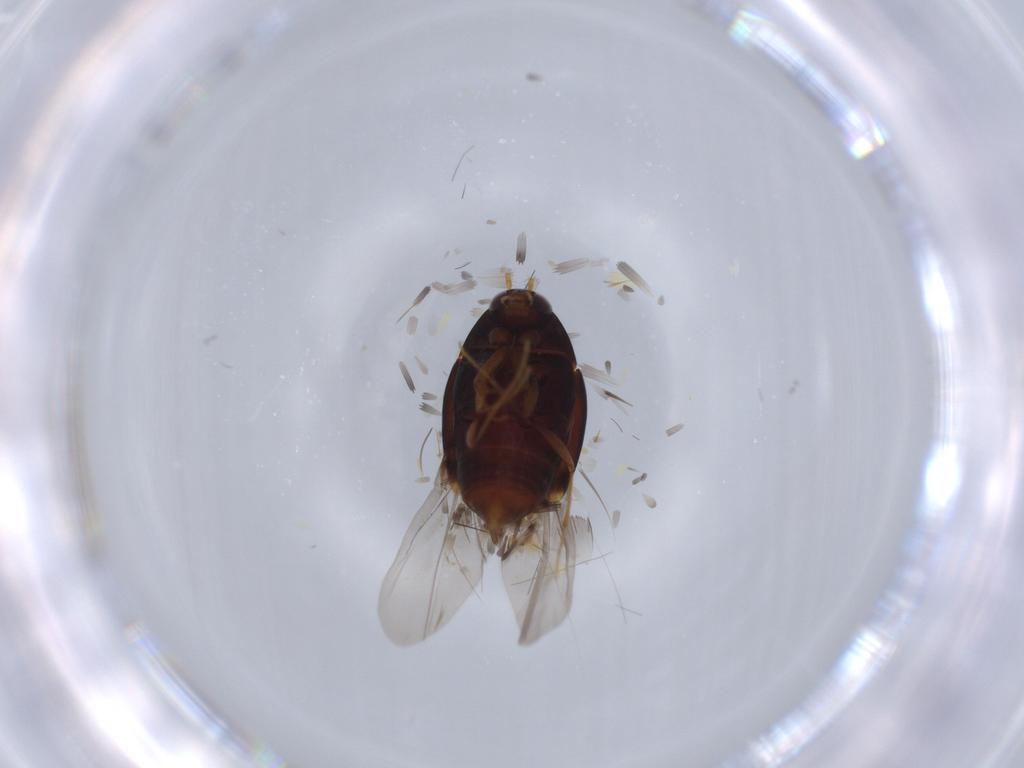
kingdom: Animalia
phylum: Arthropoda
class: Insecta
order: Coleoptera
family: Staphylinidae
